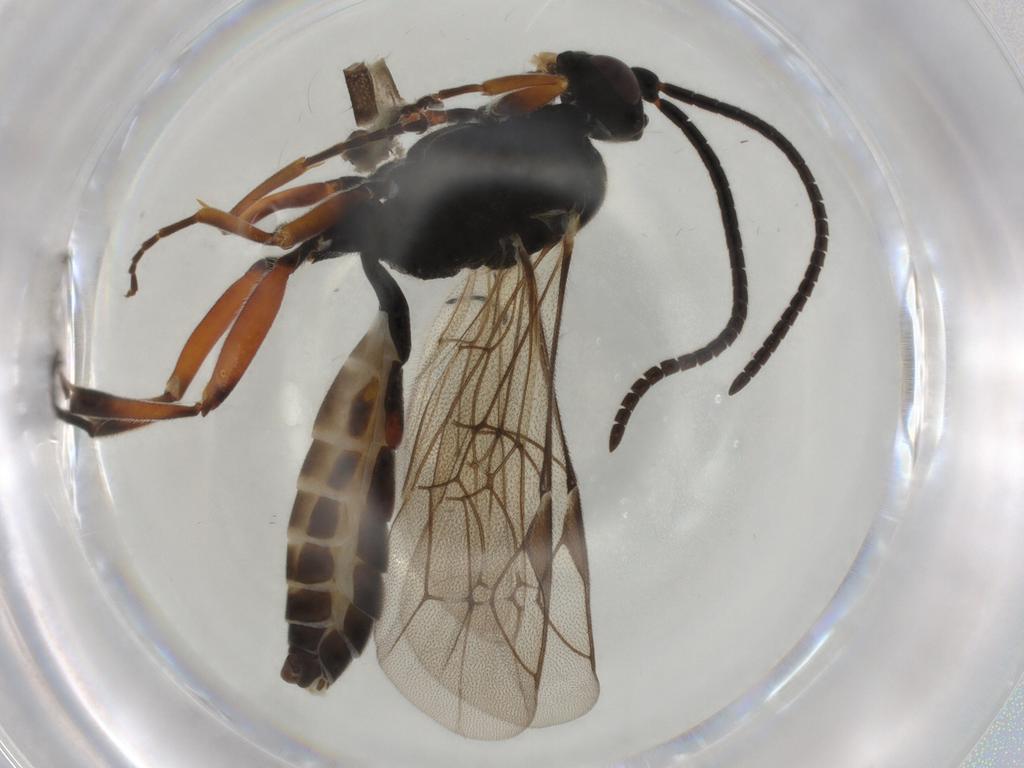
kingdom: Animalia
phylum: Arthropoda
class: Insecta
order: Hymenoptera
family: Ichneumonidae
